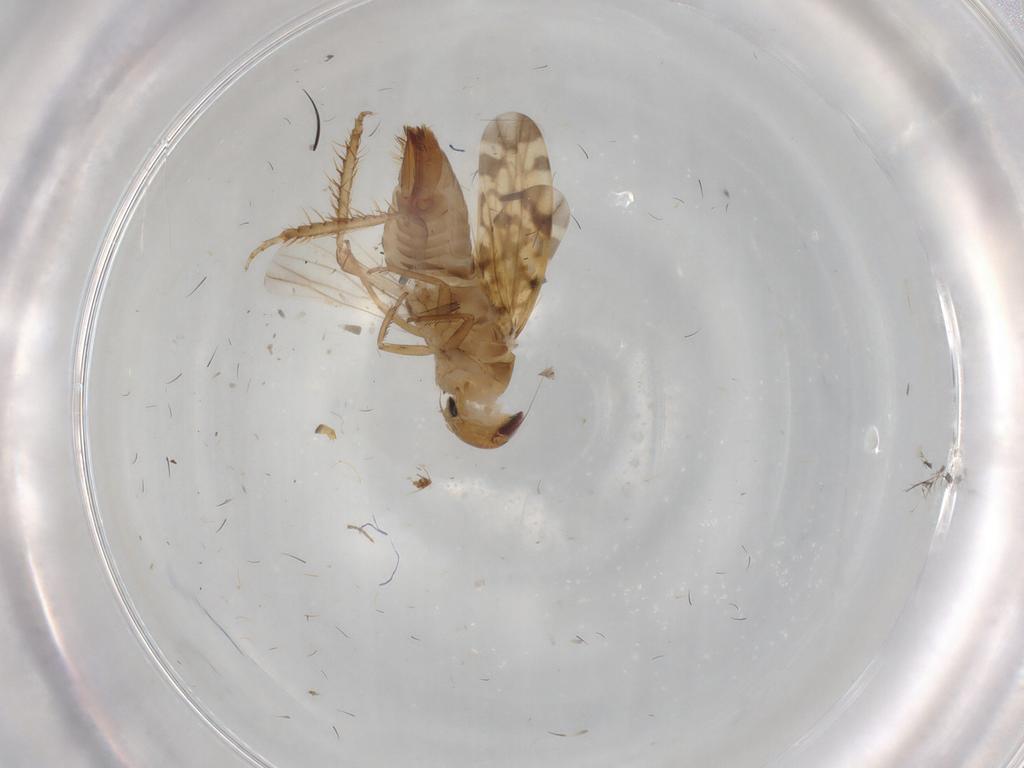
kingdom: Animalia
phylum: Arthropoda
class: Insecta
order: Hemiptera
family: Cicadellidae
